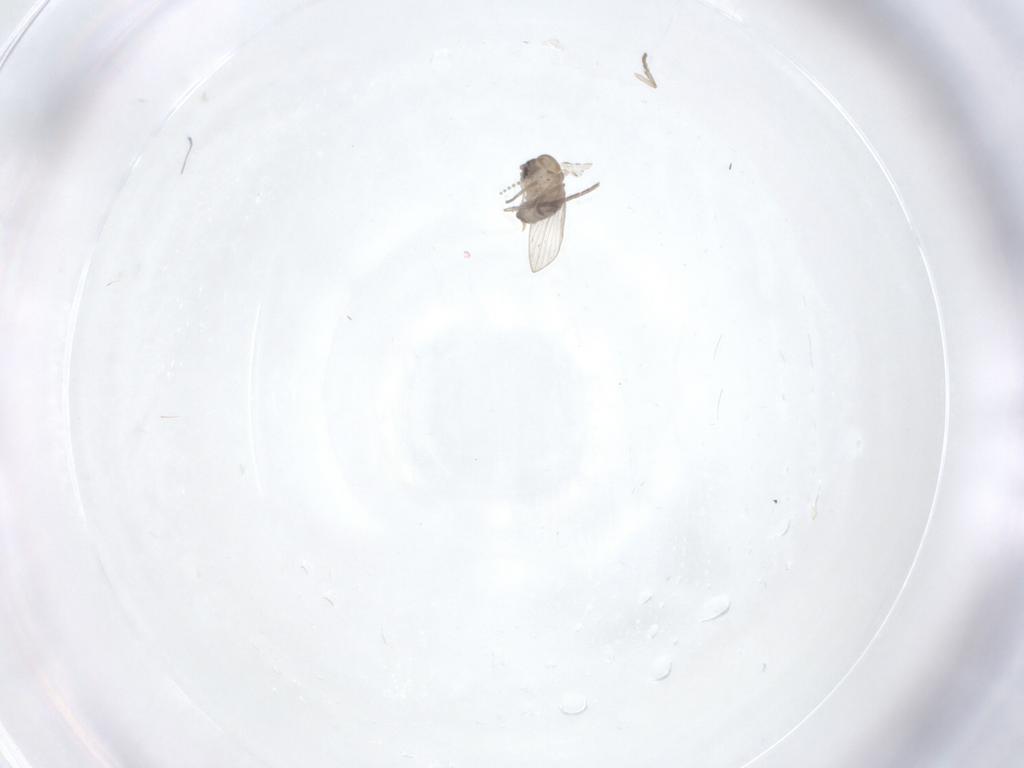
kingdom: Animalia
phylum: Arthropoda
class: Insecta
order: Diptera
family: Psychodidae
